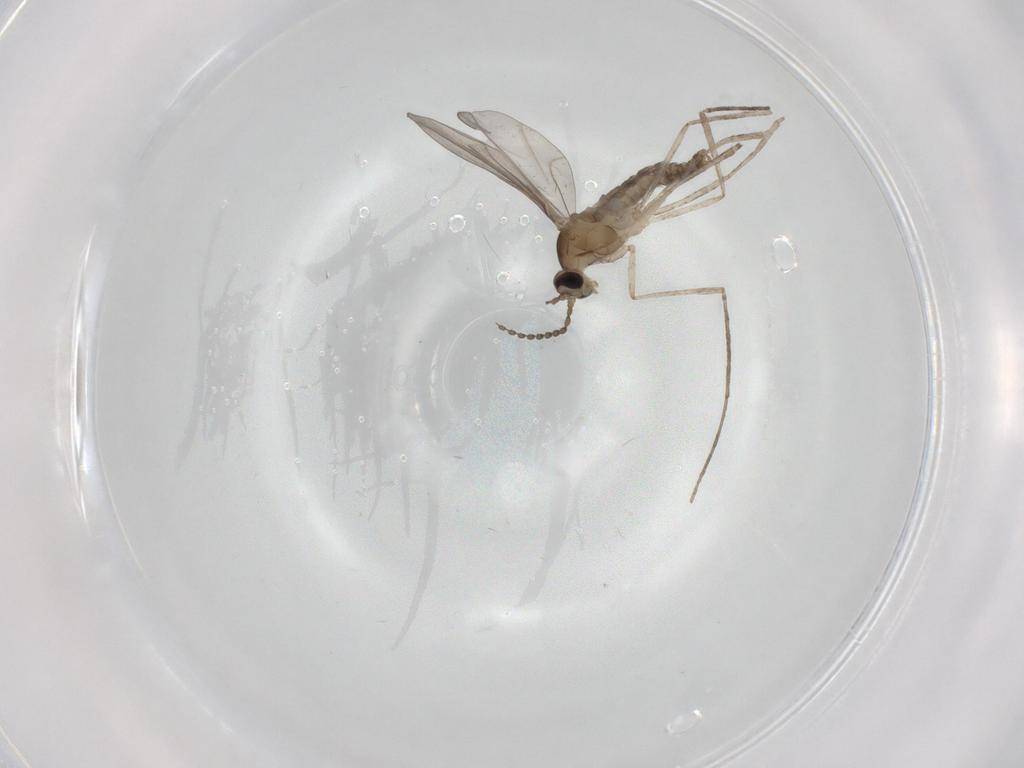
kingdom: Animalia
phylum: Arthropoda
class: Insecta
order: Diptera
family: Cecidomyiidae
